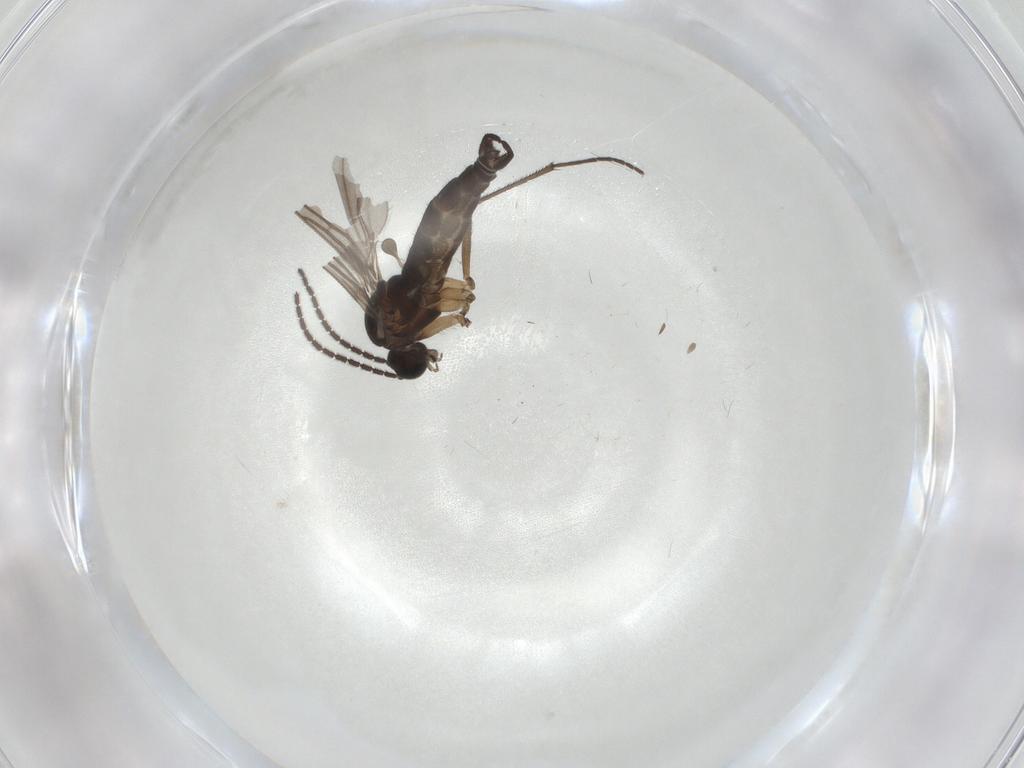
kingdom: Animalia
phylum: Arthropoda
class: Insecta
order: Diptera
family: Sciaridae
